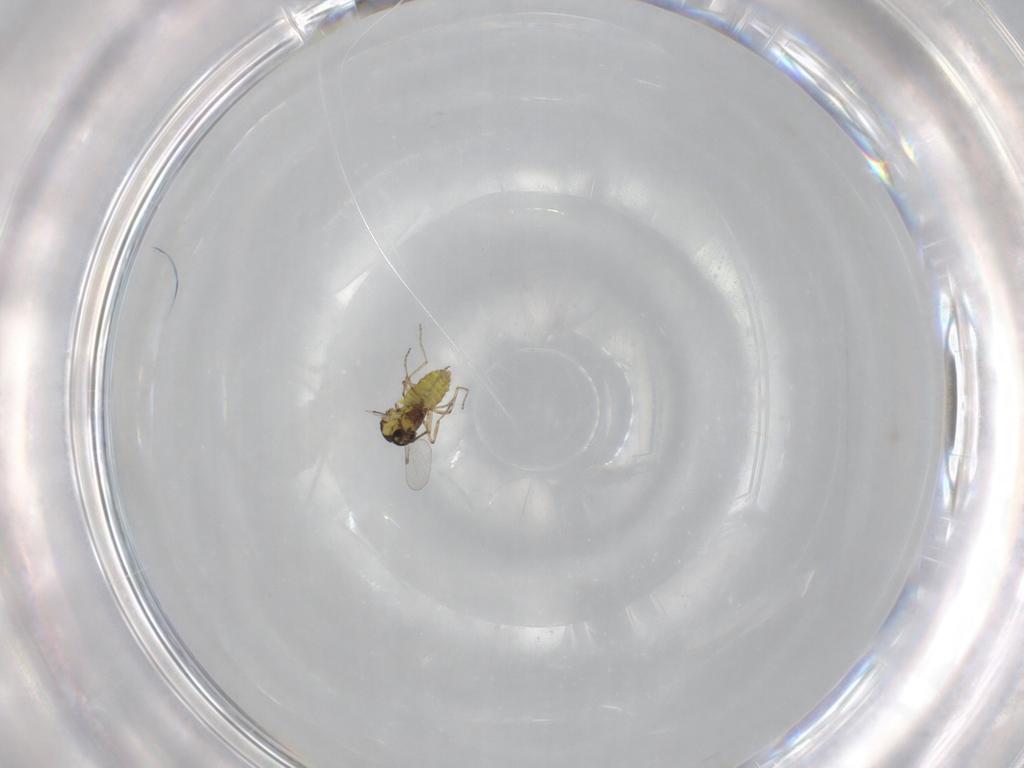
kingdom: Animalia
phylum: Arthropoda
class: Insecta
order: Diptera
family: Ceratopogonidae
